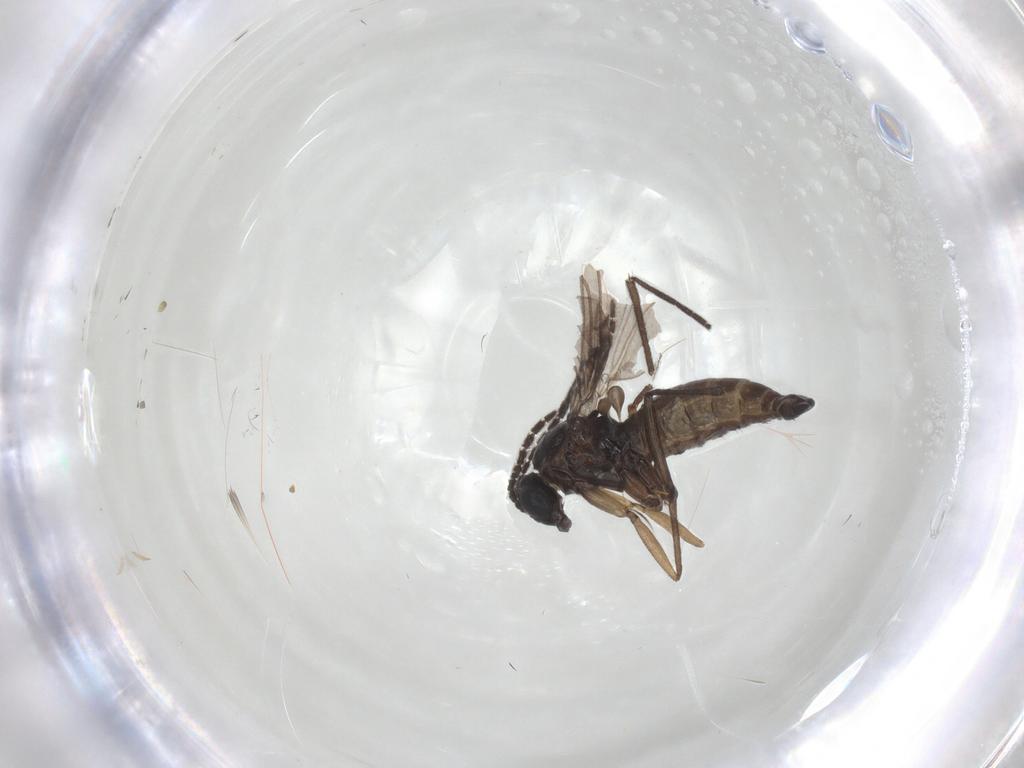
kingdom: Animalia
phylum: Arthropoda
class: Insecta
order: Diptera
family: Sciaridae
